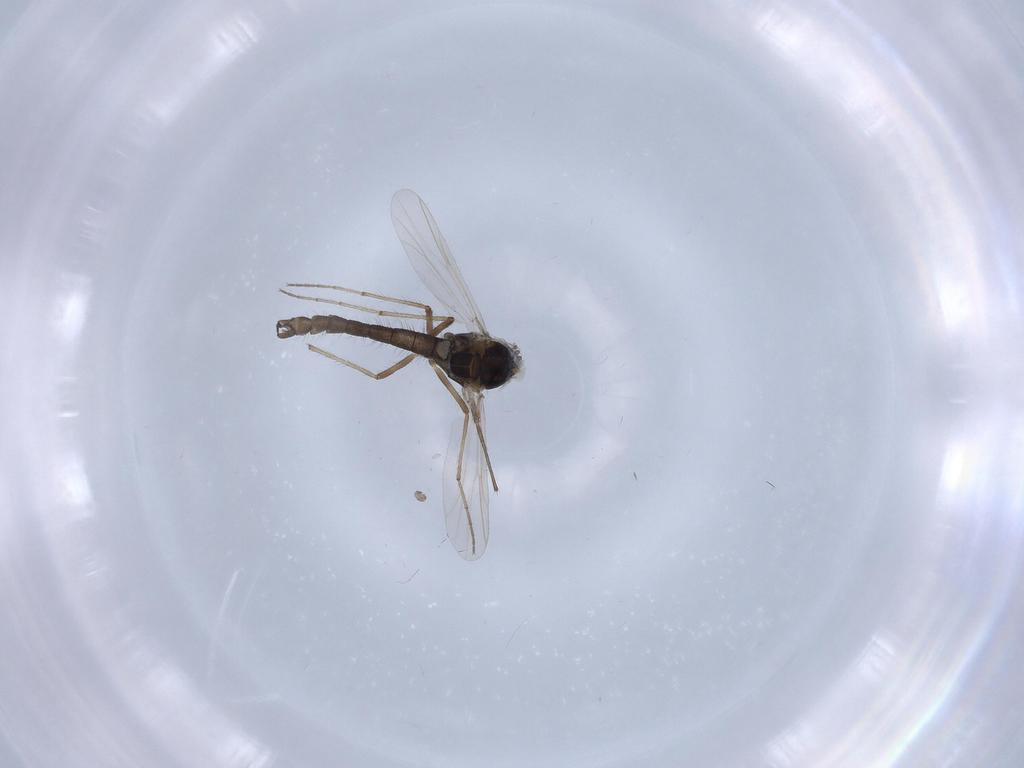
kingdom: Animalia
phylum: Arthropoda
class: Insecta
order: Diptera
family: Chironomidae
